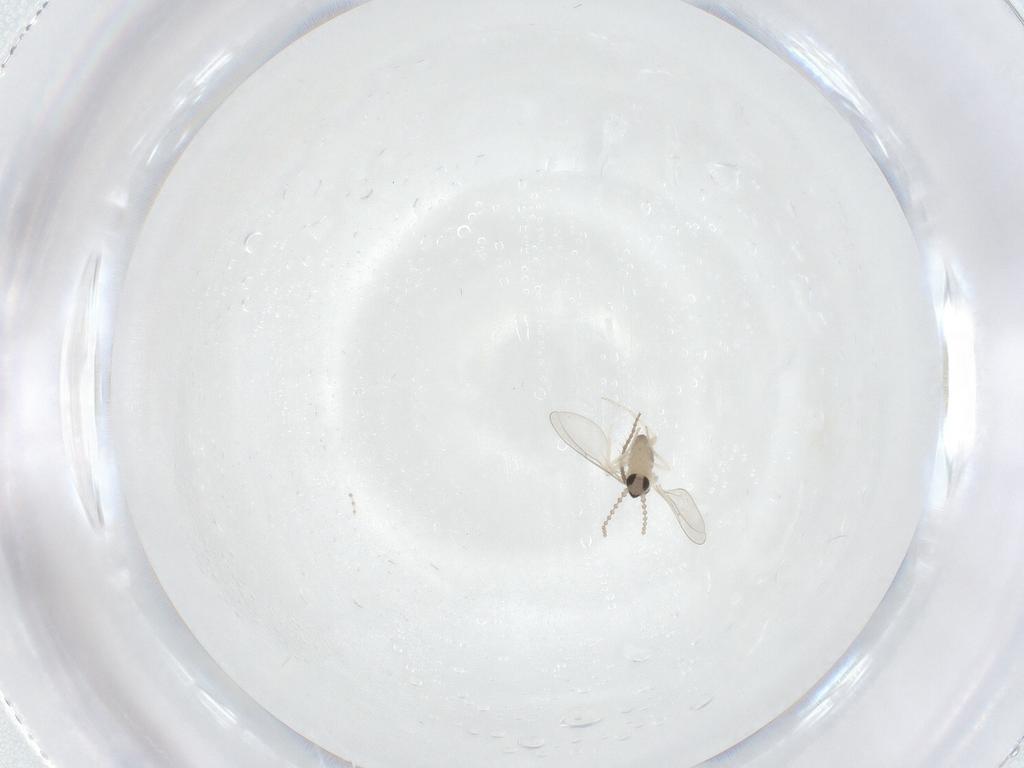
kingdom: Animalia
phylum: Arthropoda
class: Insecta
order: Diptera
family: Cecidomyiidae
